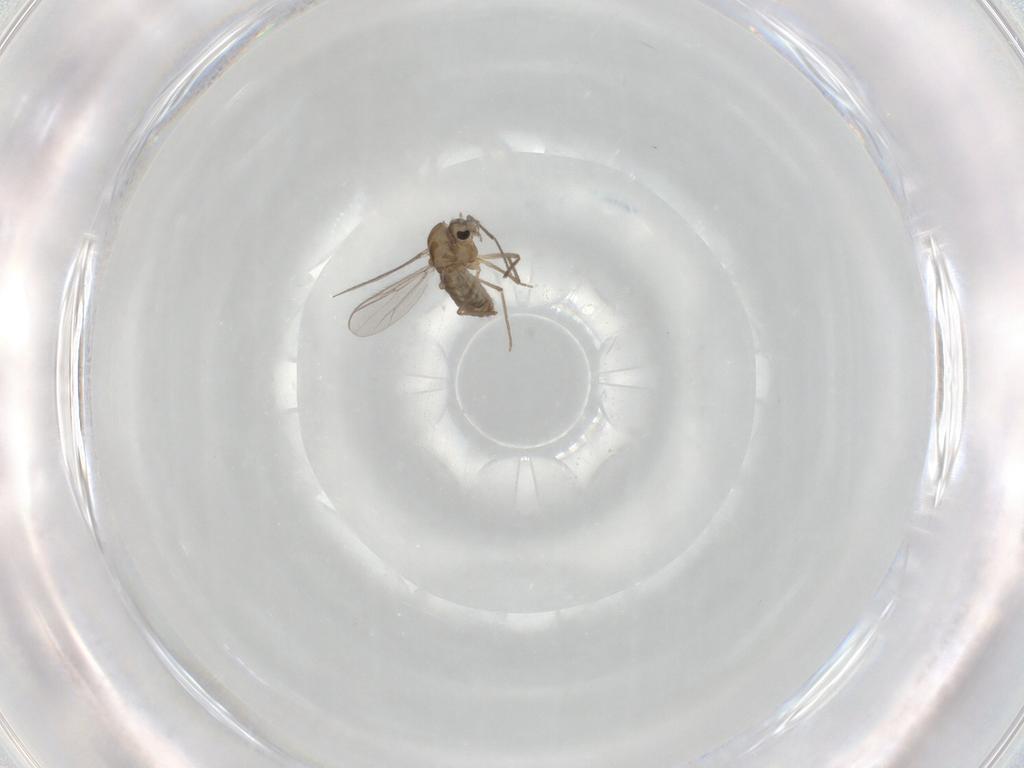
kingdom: Animalia
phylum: Arthropoda
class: Insecta
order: Diptera
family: Chironomidae
